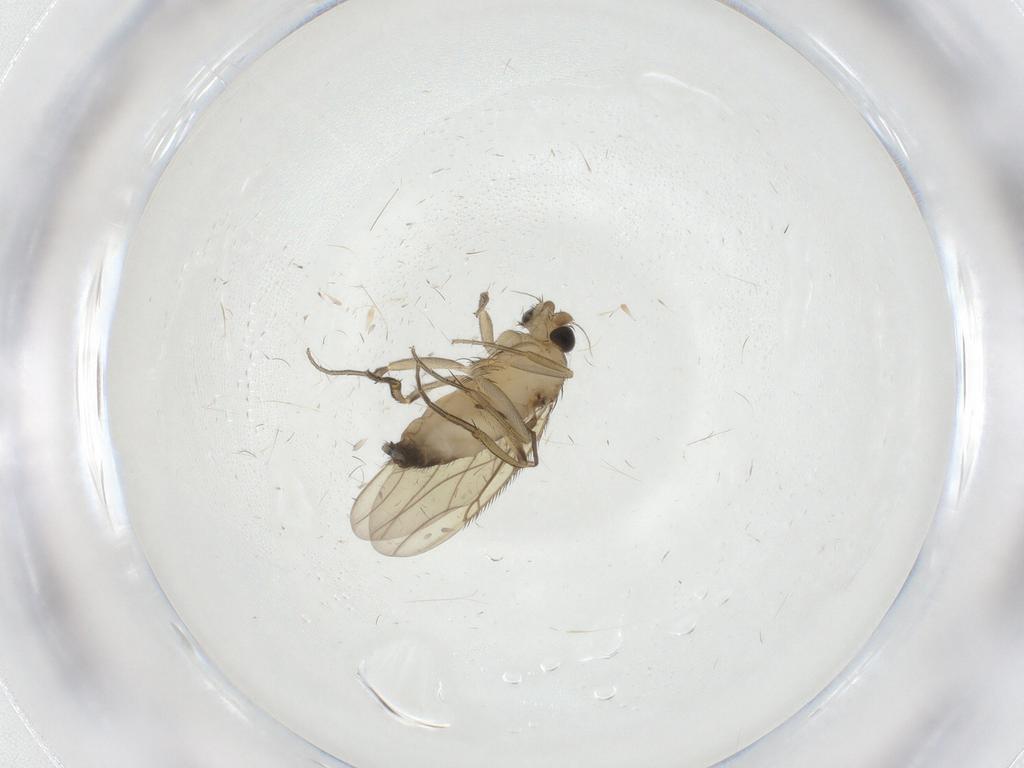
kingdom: Animalia
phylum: Arthropoda
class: Insecta
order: Diptera
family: Phoridae
